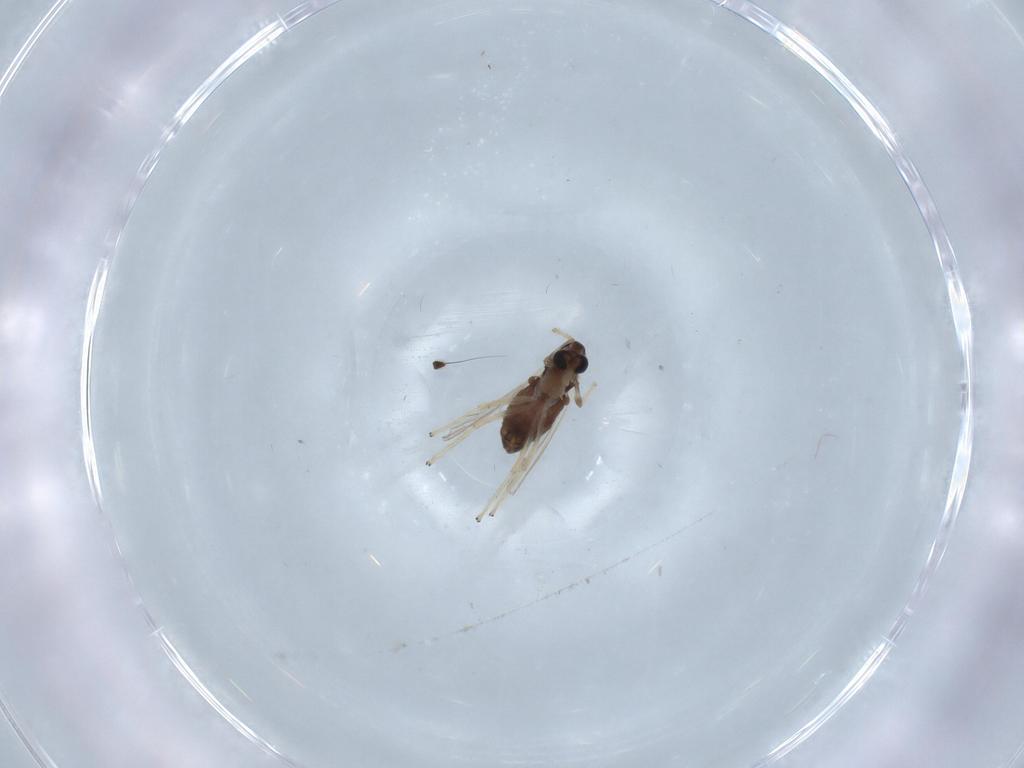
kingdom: Animalia
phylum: Arthropoda
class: Insecta
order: Diptera
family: Chironomidae
